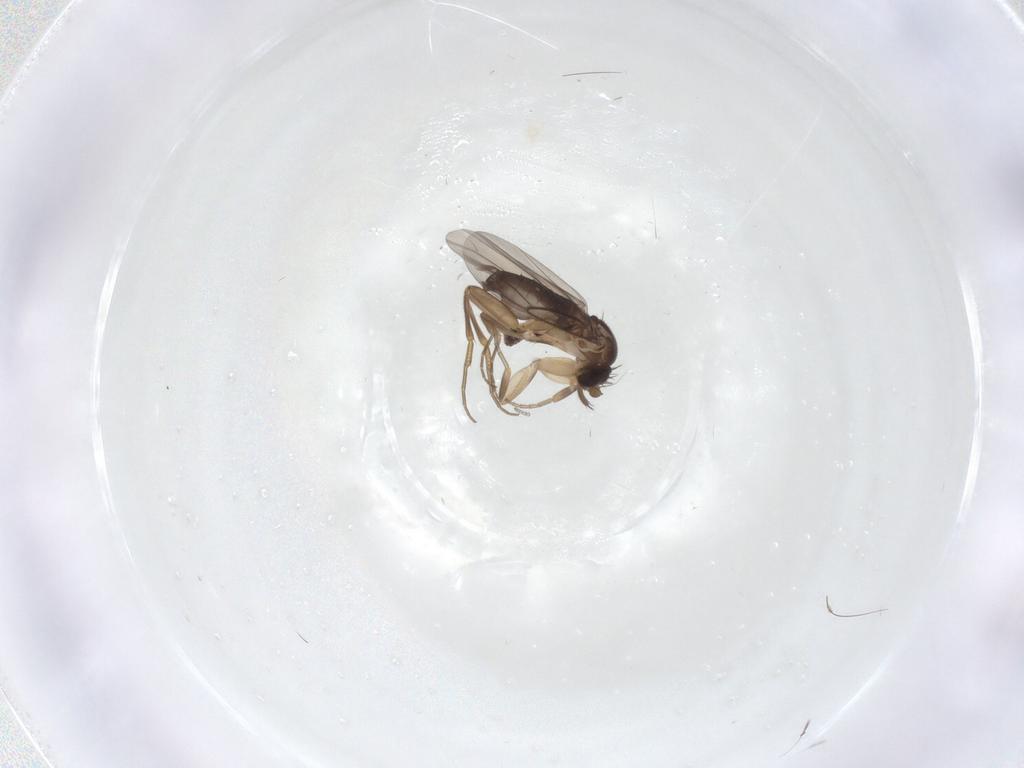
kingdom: Animalia
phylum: Arthropoda
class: Insecta
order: Diptera
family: Phoridae
